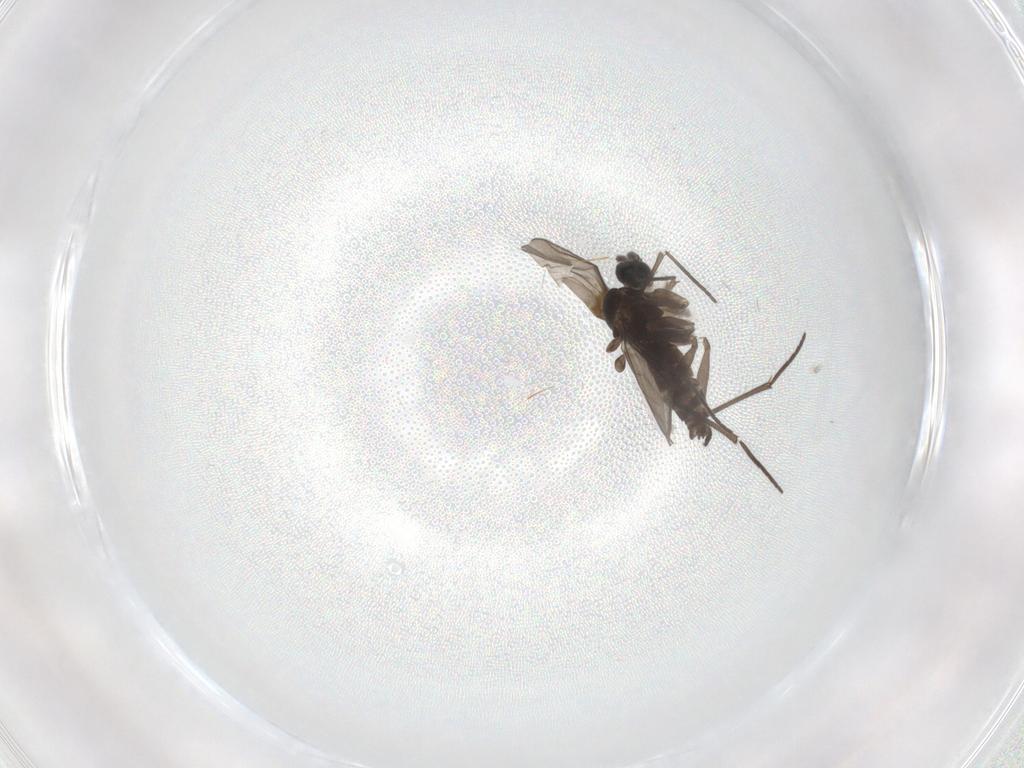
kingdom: Animalia
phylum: Arthropoda
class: Insecta
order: Diptera
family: Sciaridae
